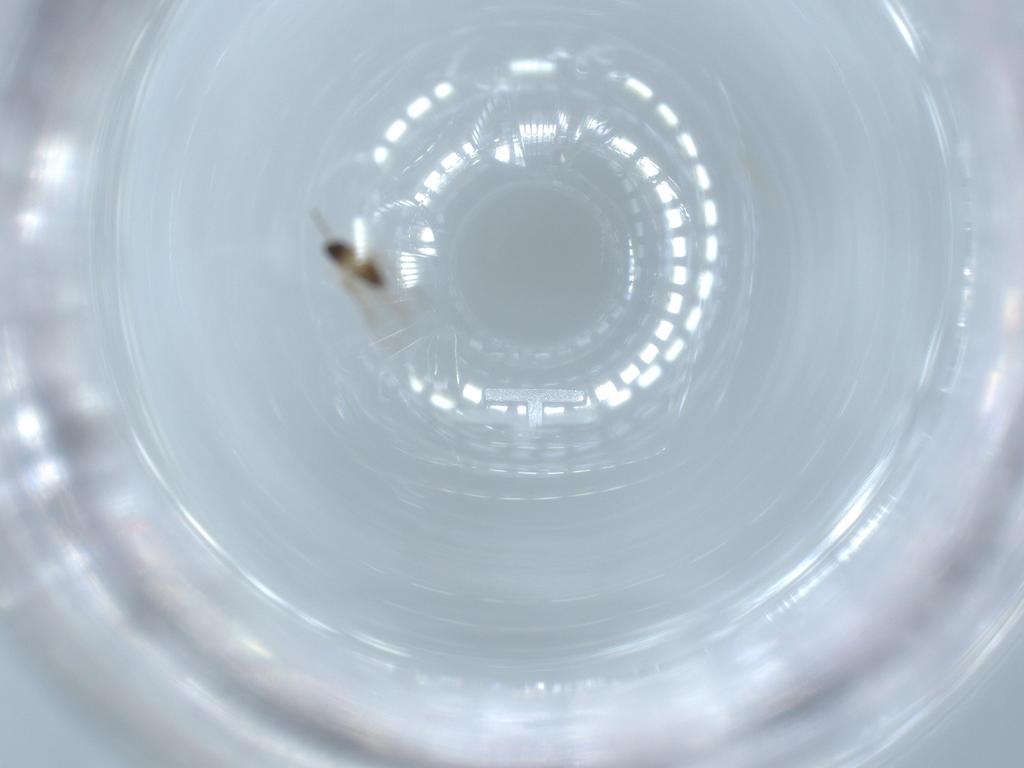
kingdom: Animalia
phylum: Arthropoda
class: Insecta
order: Diptera
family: Cecidomyiidae
